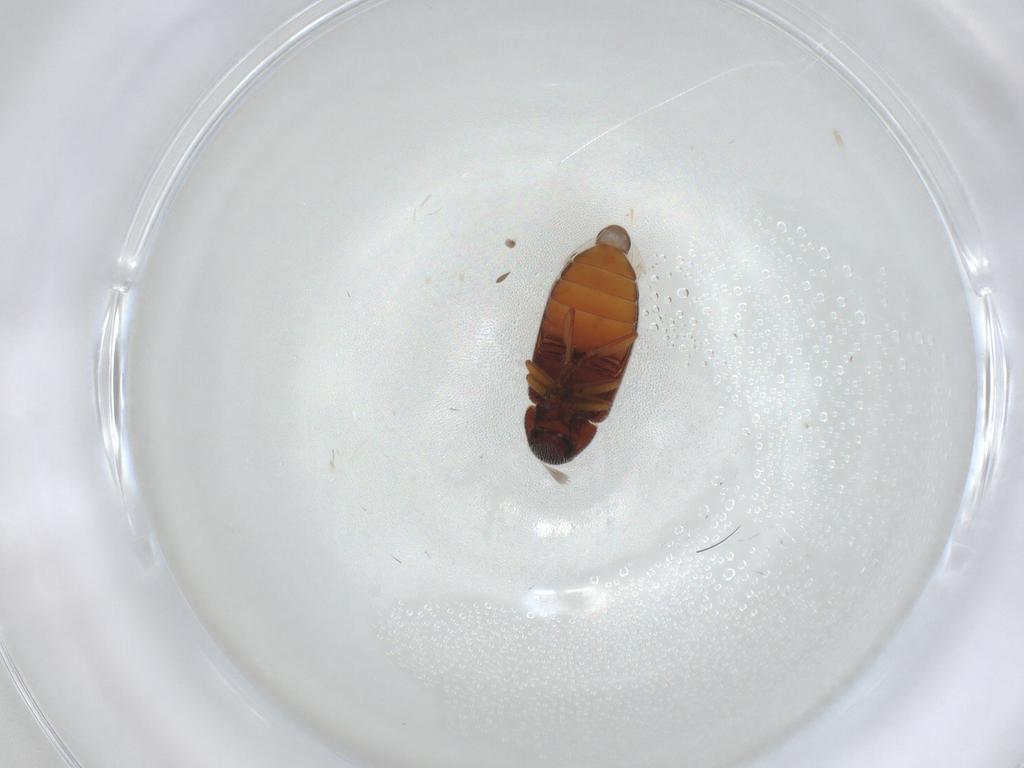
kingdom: Animalia
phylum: Arthropoda
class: Insecta
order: Coleoptera
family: Rhadalidae
